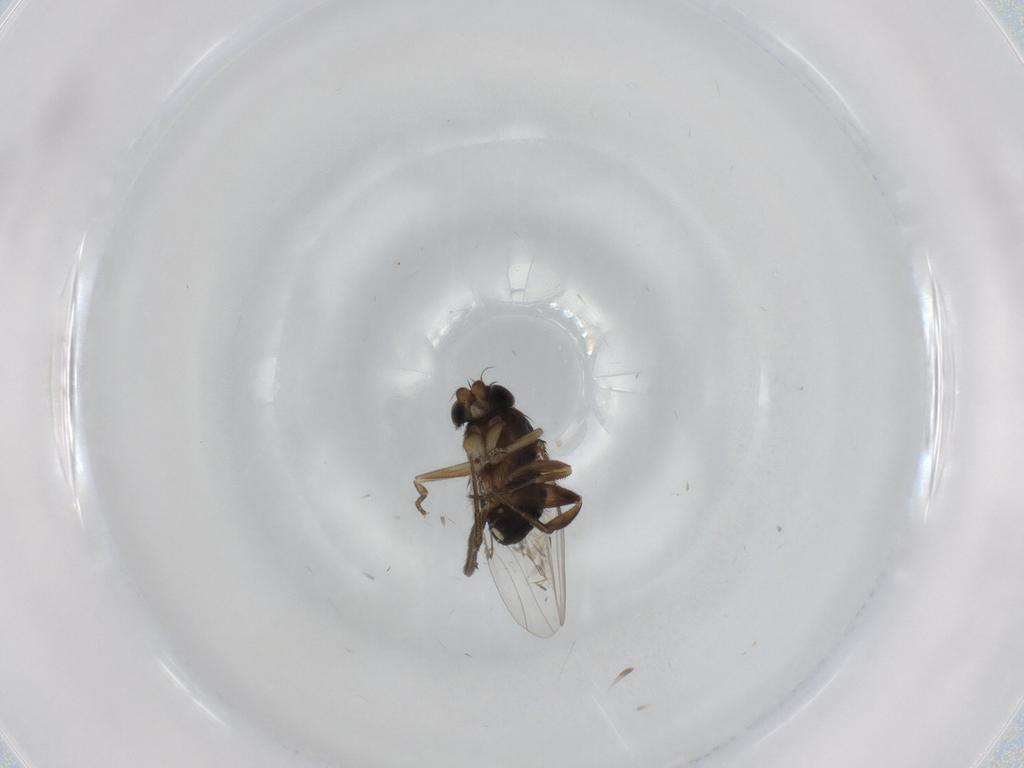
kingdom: Animalia
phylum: Arthropoda
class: Insecta
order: Diptera
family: Phoridae
